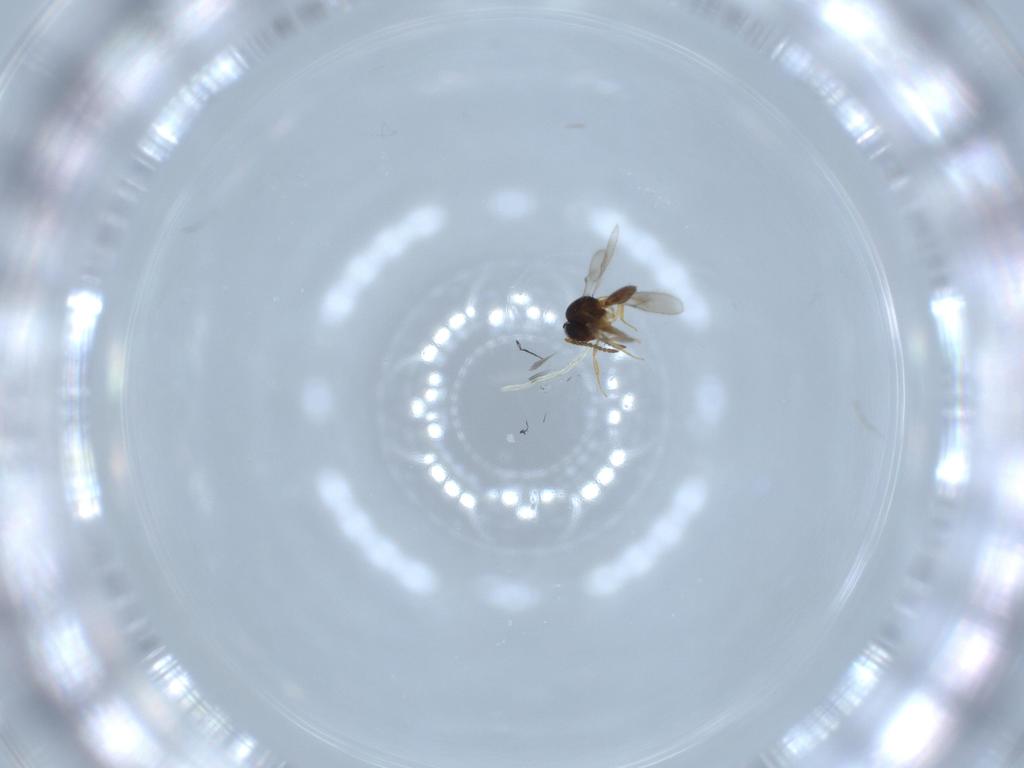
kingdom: Animalia
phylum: Arthropoda
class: Insecta
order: Hymenoptera
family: Scelionidae
